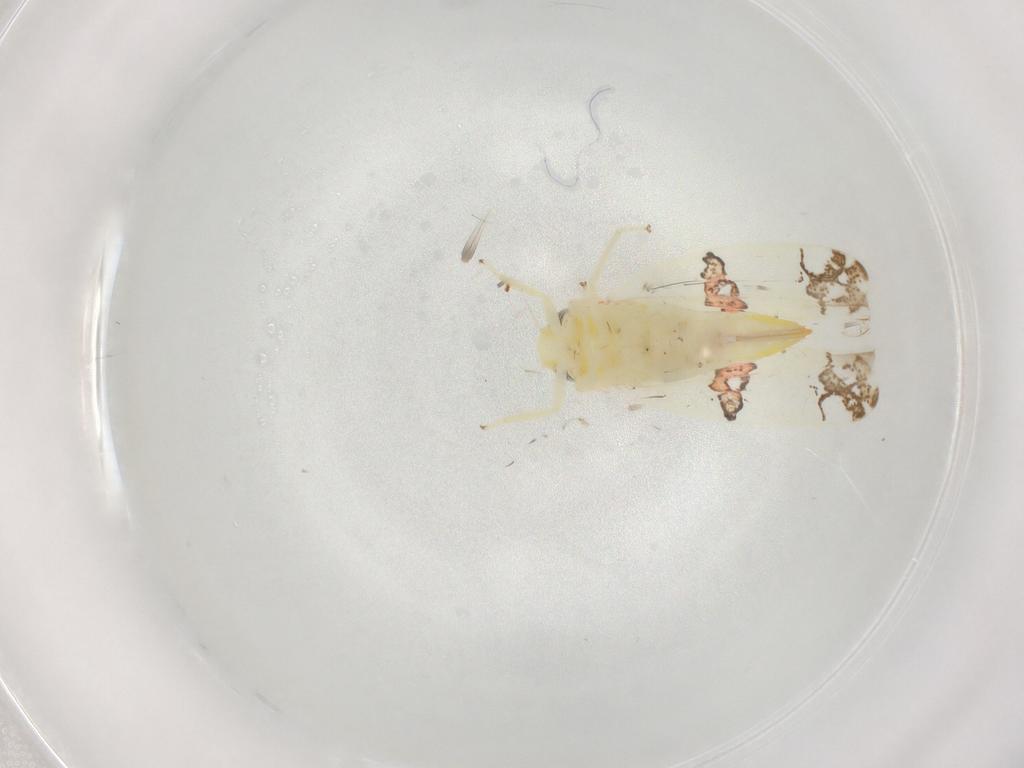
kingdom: Animalia
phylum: Arthropoda
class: Insecta
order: Hemiptera
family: Cicadellidae
